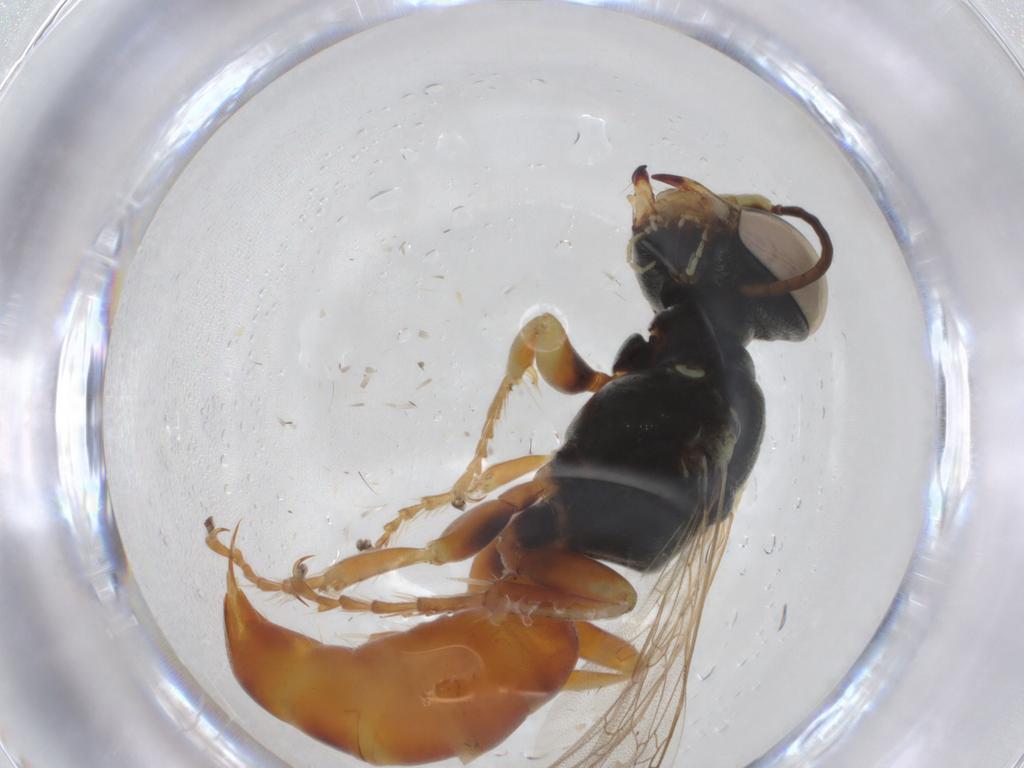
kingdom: Animalia
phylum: Arthropoda
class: Insecta
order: Hymenoptera
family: Crabronidae
